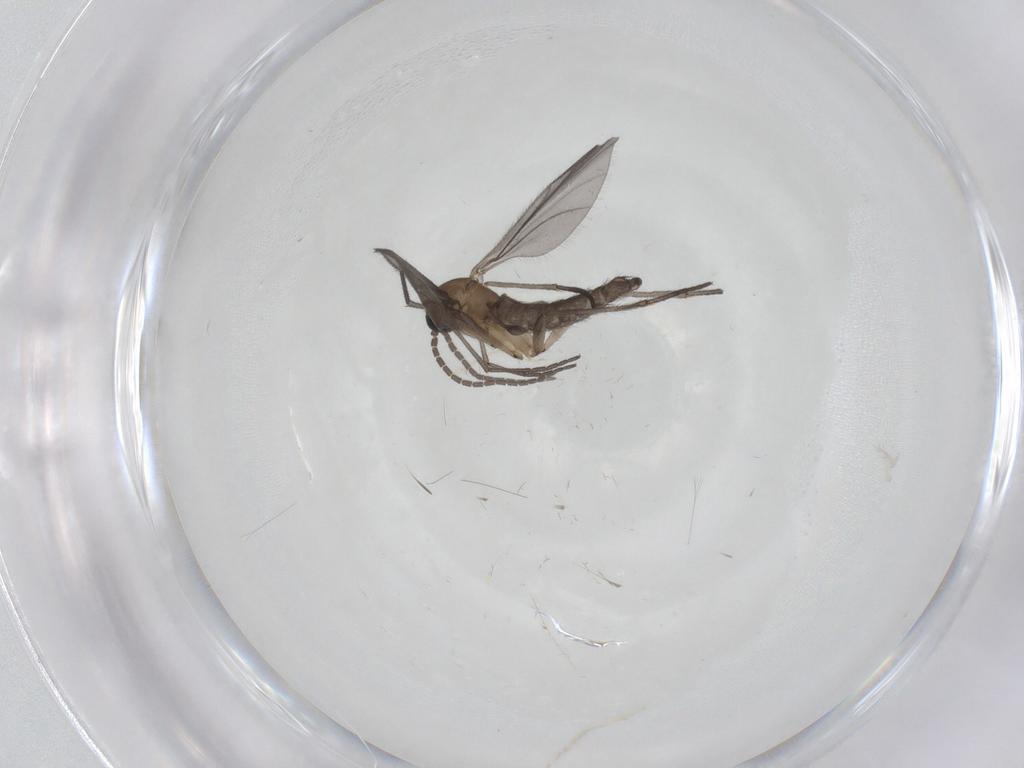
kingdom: Animalia
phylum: Arthropoda
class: Insecta
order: Diptera
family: Sciaridae
